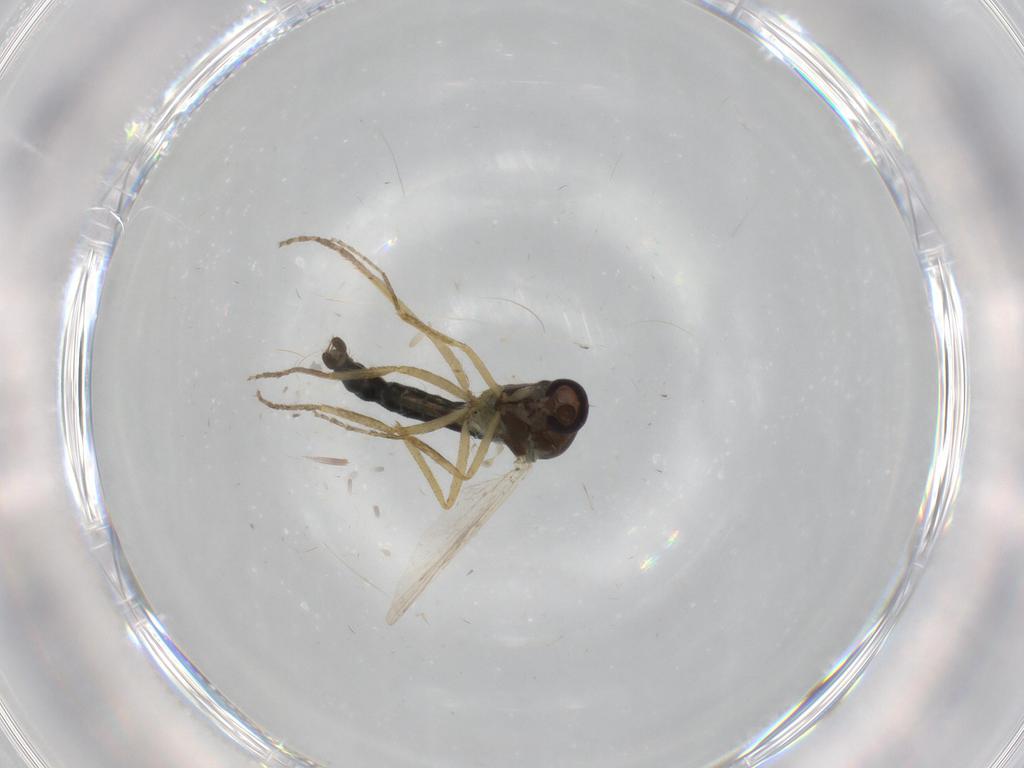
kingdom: Animalia
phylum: Arthropoda
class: Insecta
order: Diptera
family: Ceratopogonidae
